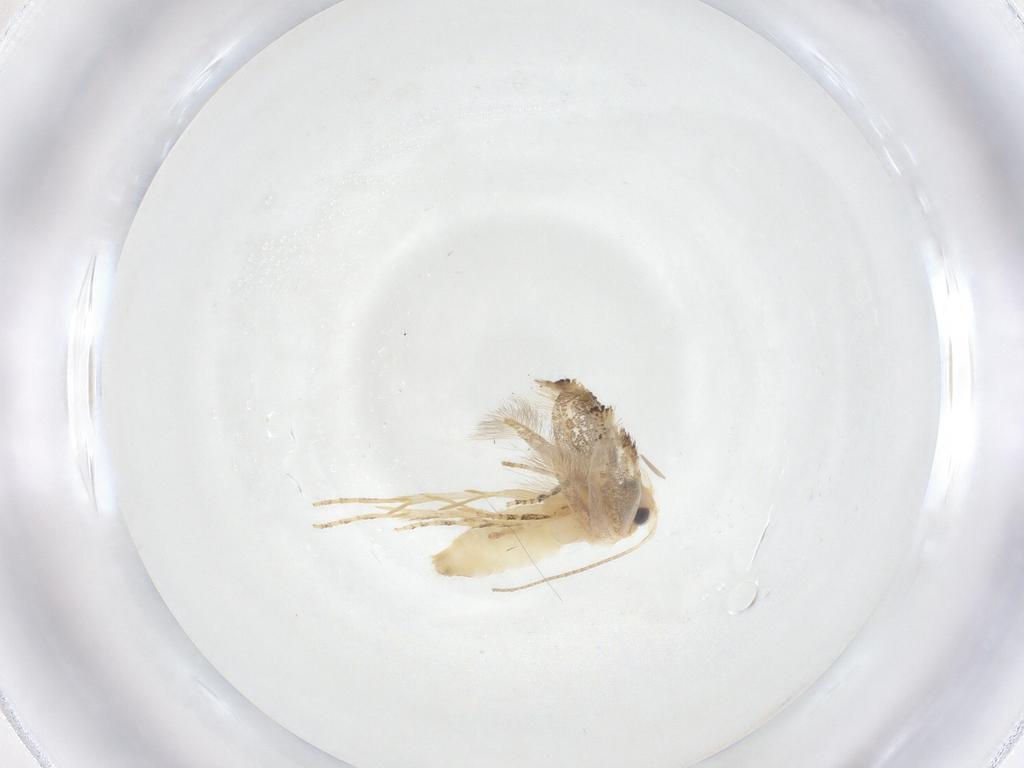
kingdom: Animalia
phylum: Arthropoda
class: Insecta
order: Lepidoptera
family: Bucculatricidae
